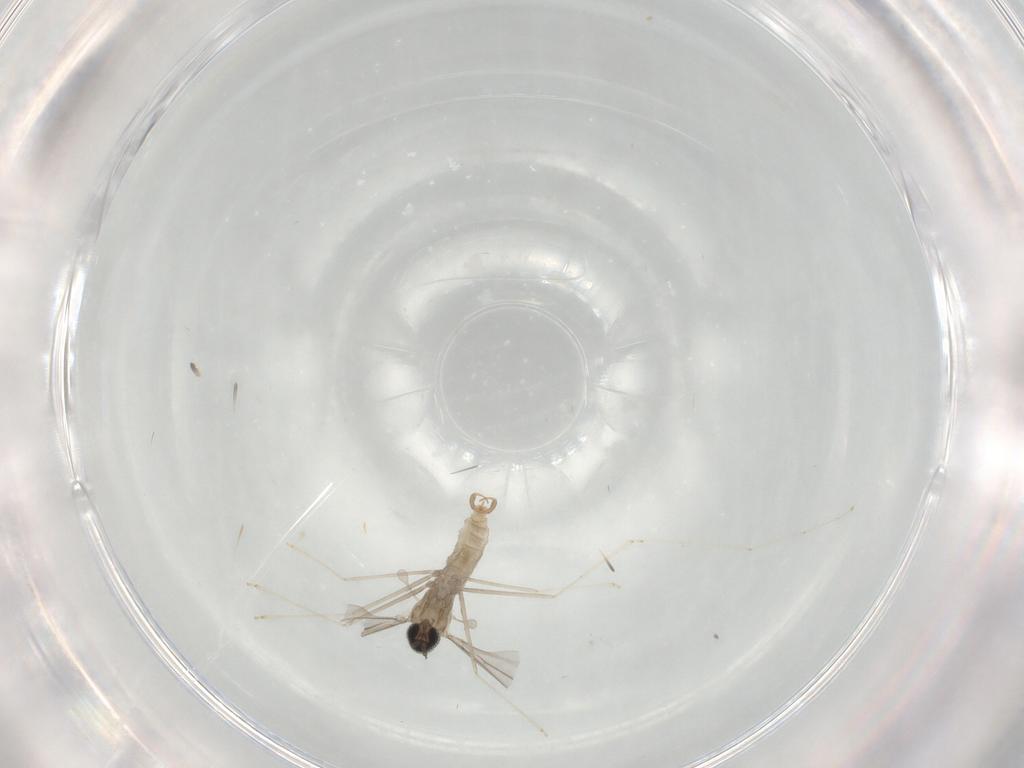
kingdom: Animalia
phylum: Arthropoda
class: Insecta
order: Diptera
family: Cecidomyiidae
